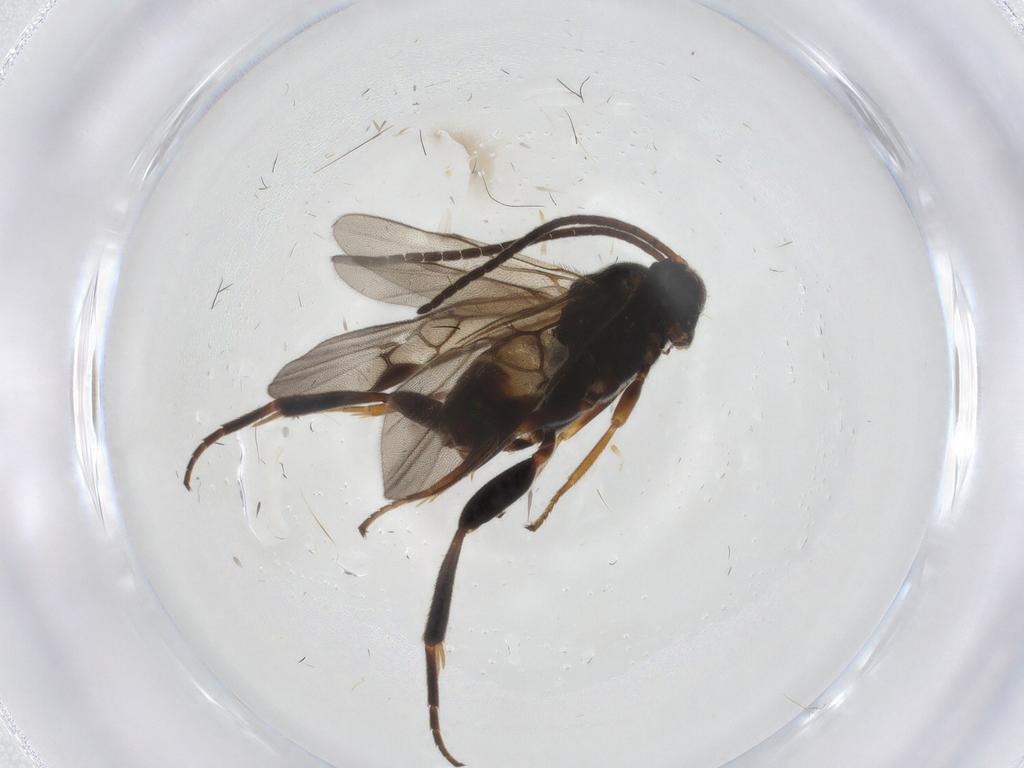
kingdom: Animalia
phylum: Arthropoda
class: Insecta
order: Hymenoptera
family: Braconidae
